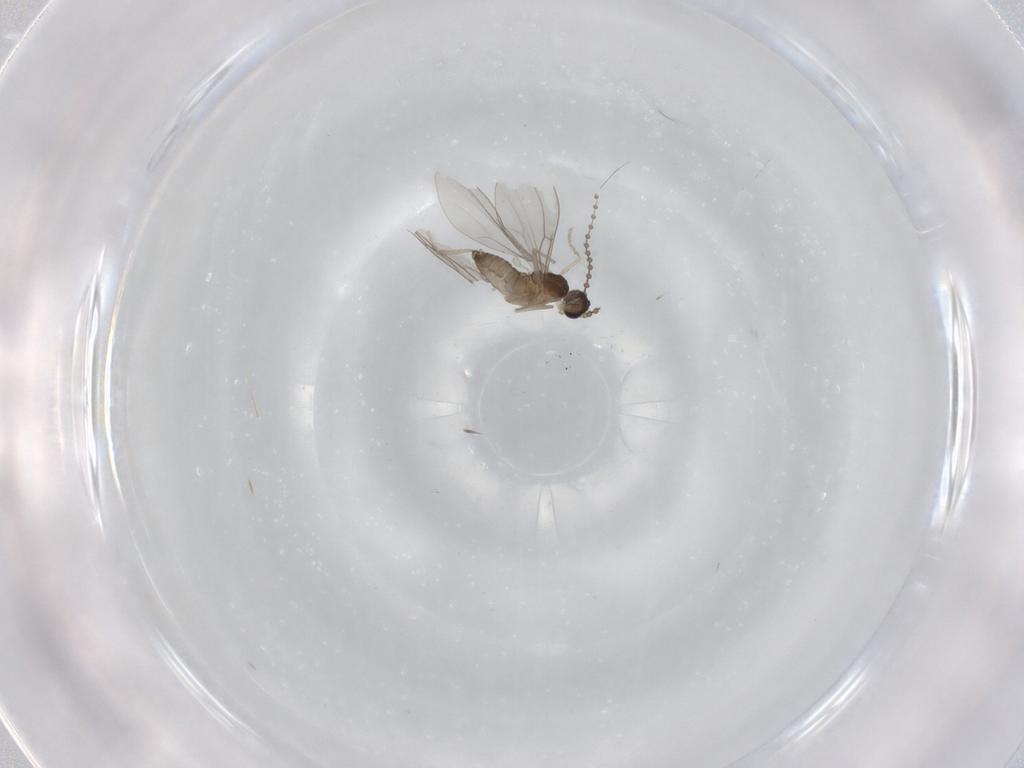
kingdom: Animalia
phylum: Arthropoda
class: Insecta
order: Diptera
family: Sciaridae
